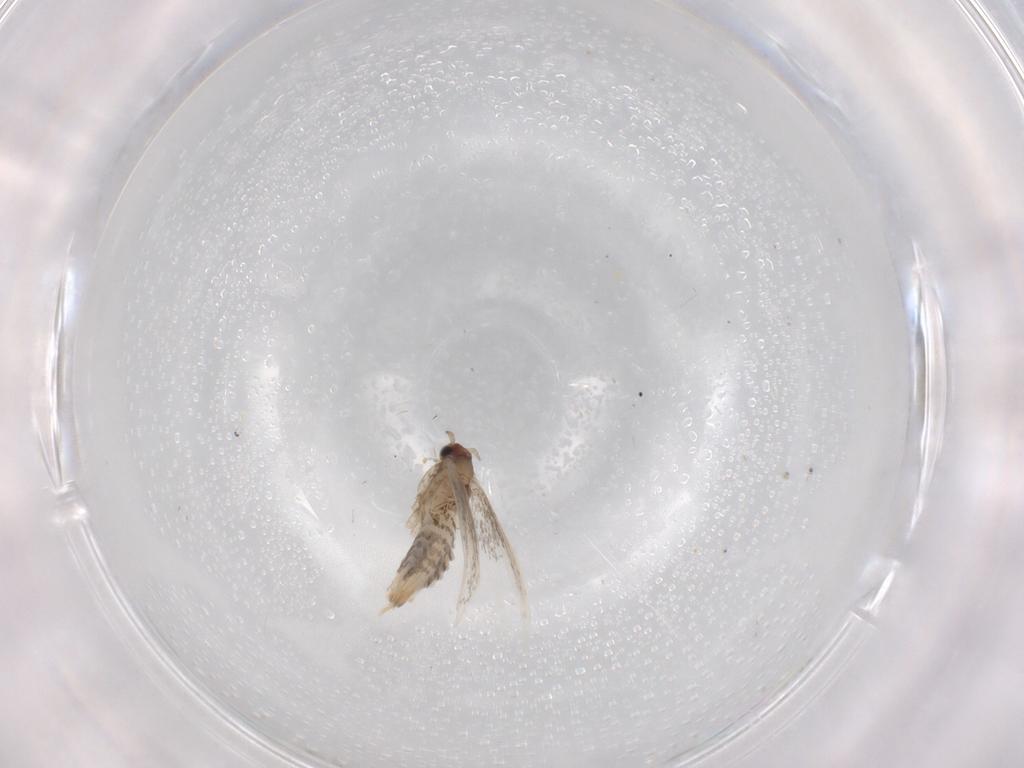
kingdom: Animalia
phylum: Arthropoda
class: Insecta
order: Lepidoptera
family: Tineidae
